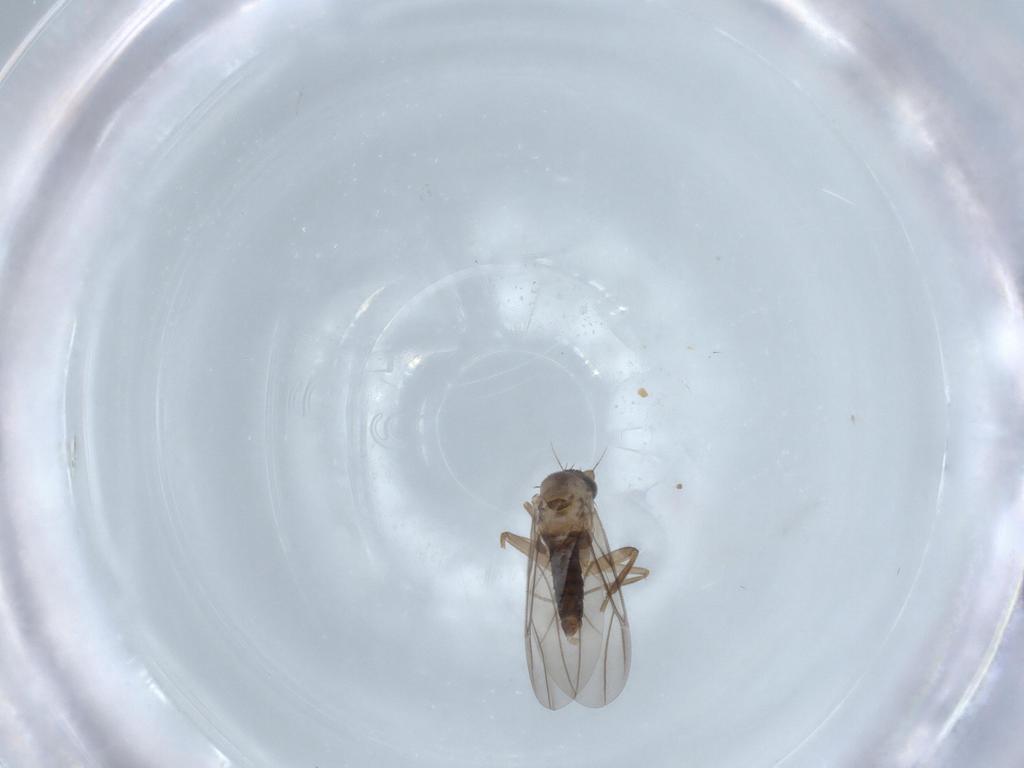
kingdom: Animalia
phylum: Arthropoda
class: Insecta
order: Diptera
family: Phoridae
